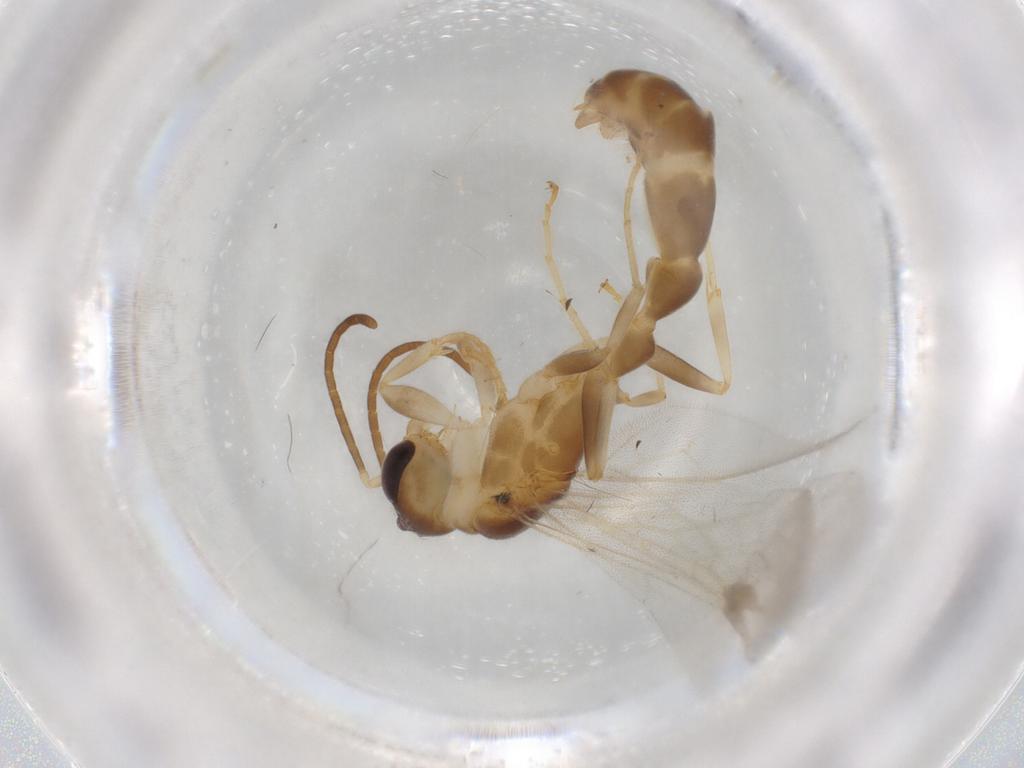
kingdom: Animalia
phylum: Arthropoda
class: Insecta
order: Hymenoptera
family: Formicidae
